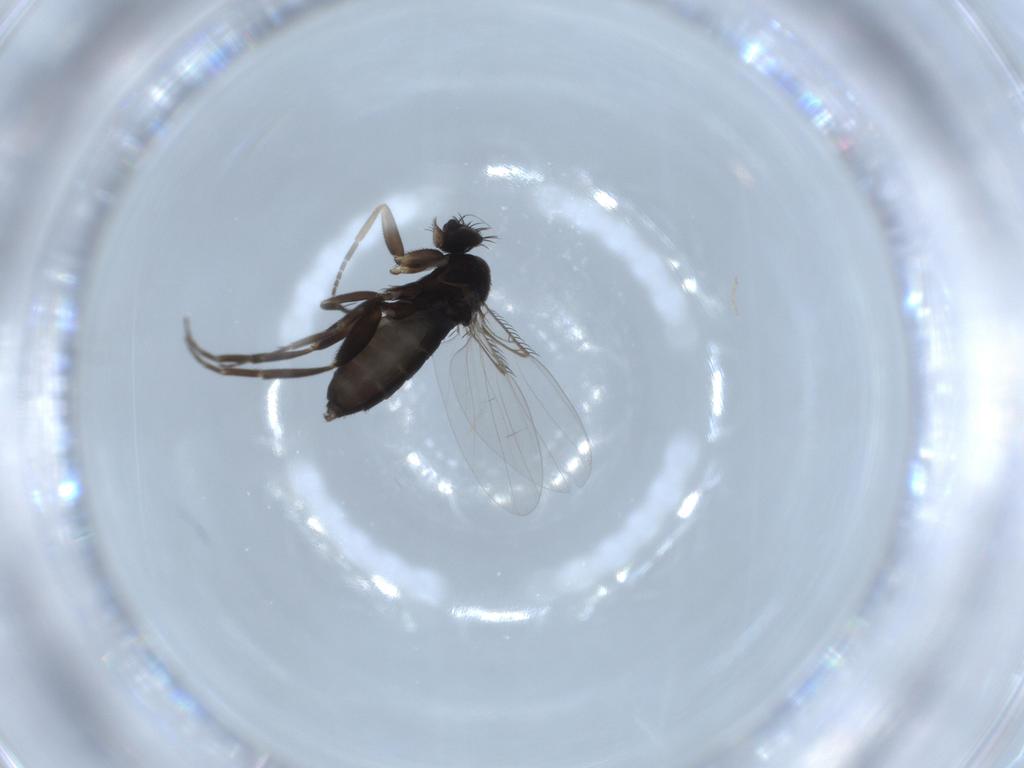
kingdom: Animalia
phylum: Arthropoda
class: Insecta
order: Diptera
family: Phoridae
